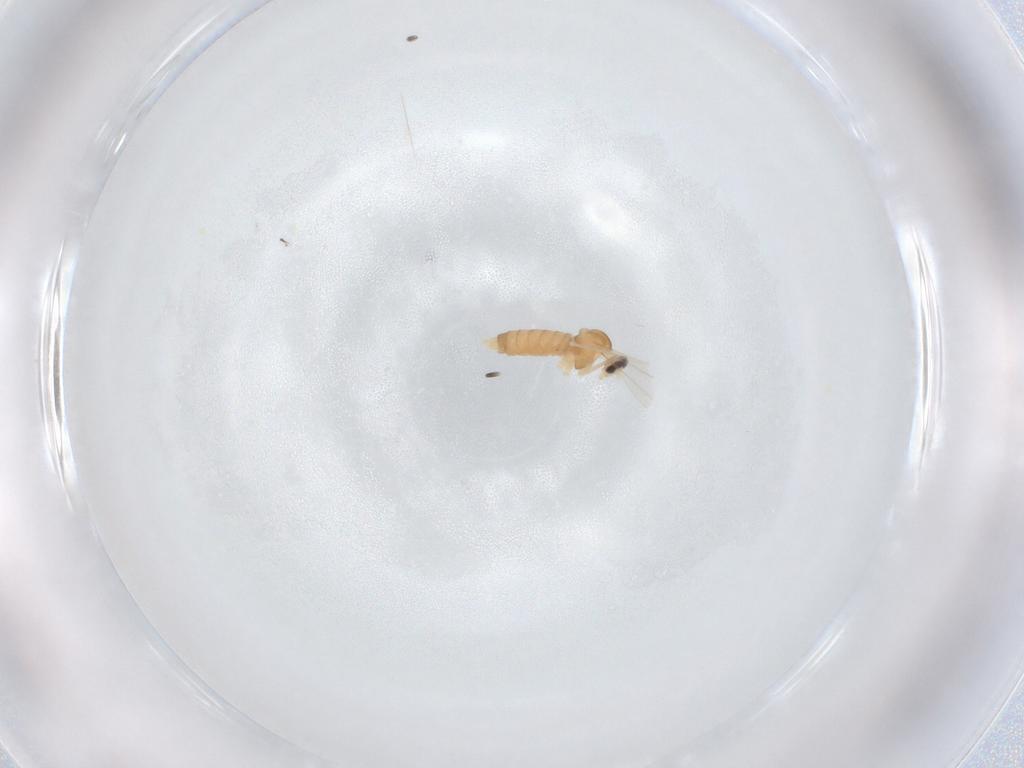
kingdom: Animalia
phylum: Arthropoda
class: Insecta
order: Diptera
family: Cecidomyiidae
